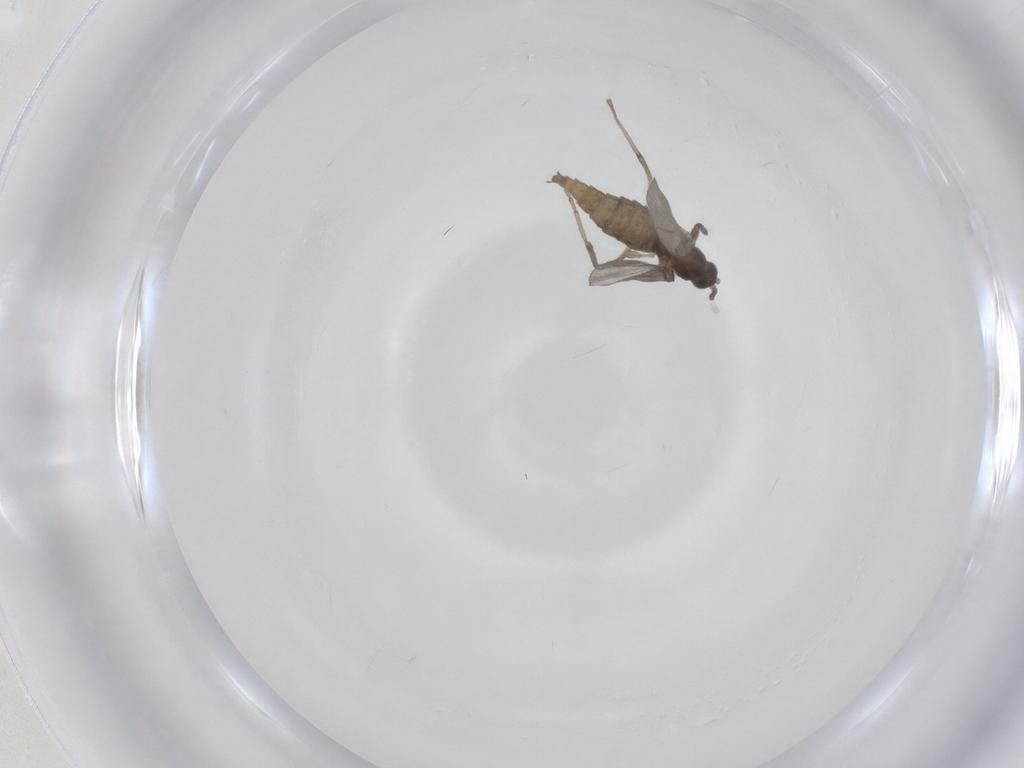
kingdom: Animalia
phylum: Arthropoda
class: Insecta
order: Diptera
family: Cecidomyiidae
